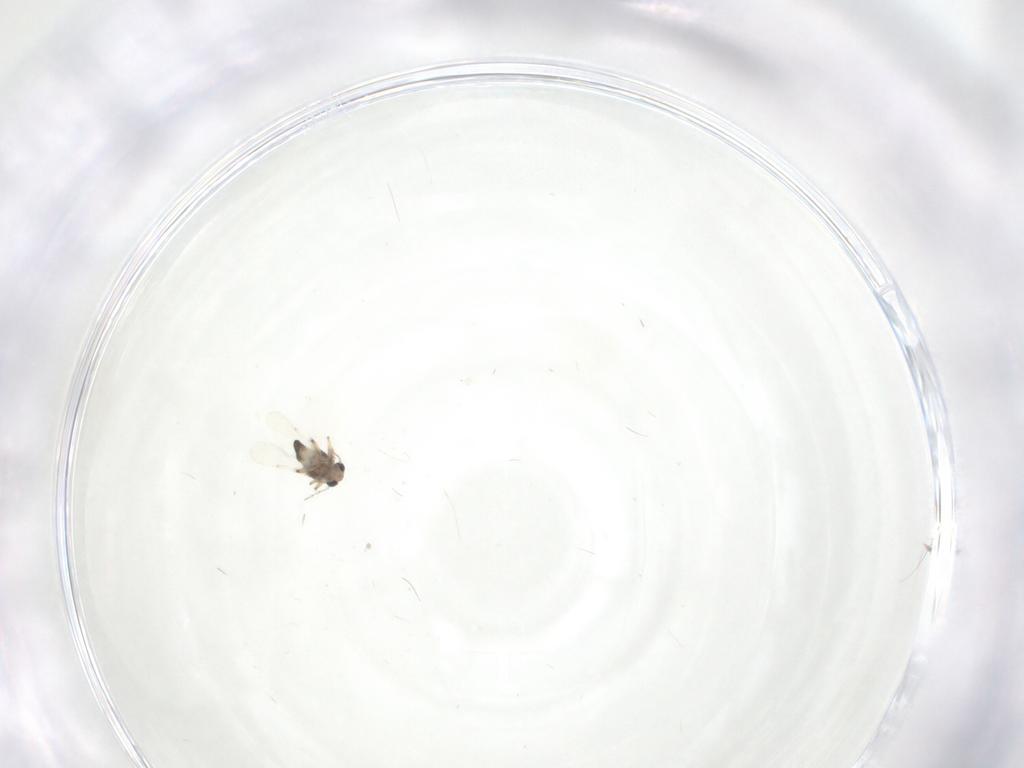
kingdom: Animalia
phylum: Arthropoda
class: Insecta
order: Diptera
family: Ceratopogonidae
